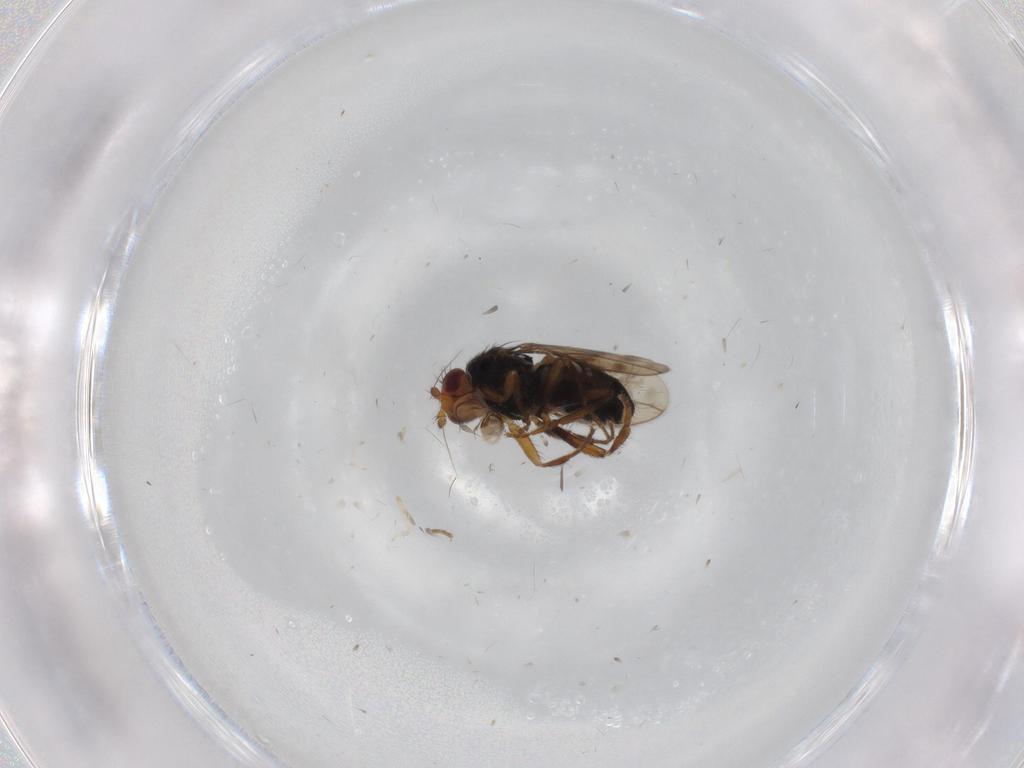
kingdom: Animalia
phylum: Arthropoda
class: Insecta
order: Diptera
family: Sphaeroceridae
